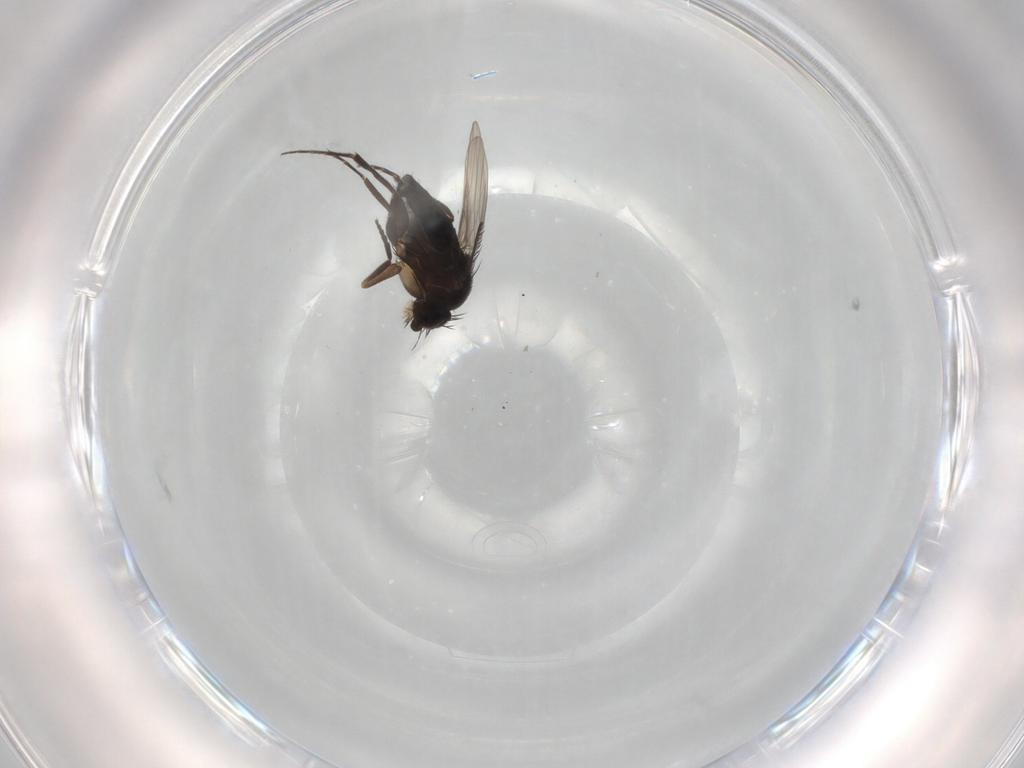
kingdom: Animalia
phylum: Arthropoda
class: Insecta
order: Diptera
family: Phoridae
